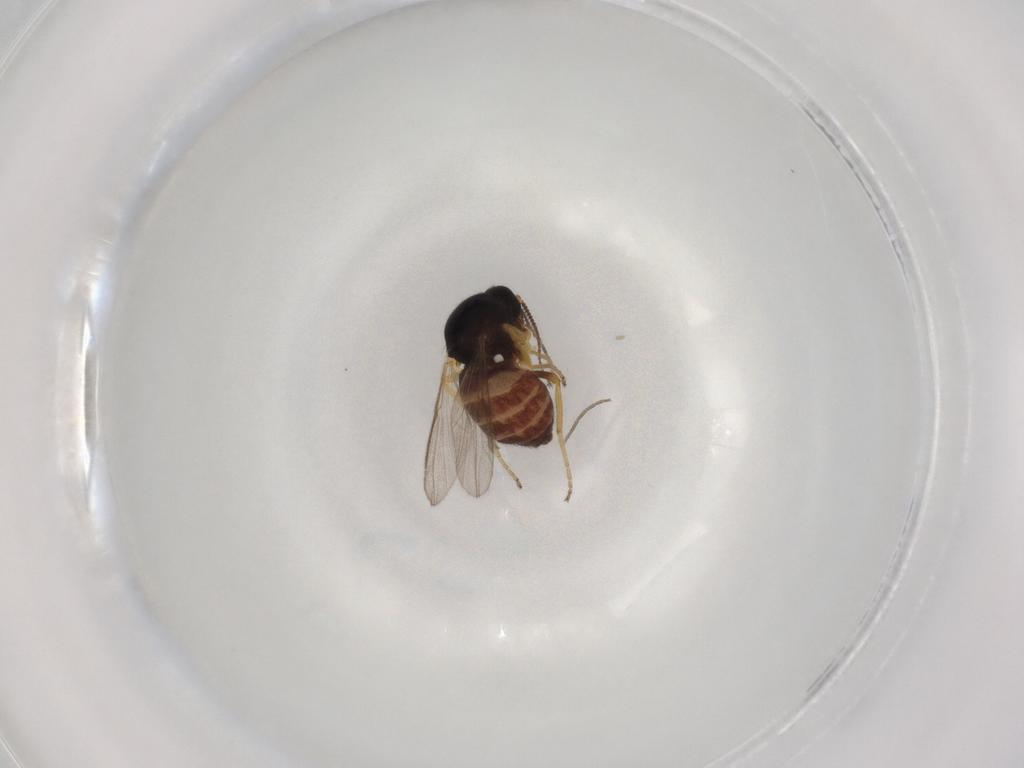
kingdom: Animalia
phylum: Arthropoda
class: Insecta
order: Diptera
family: Ceratopogonidae
